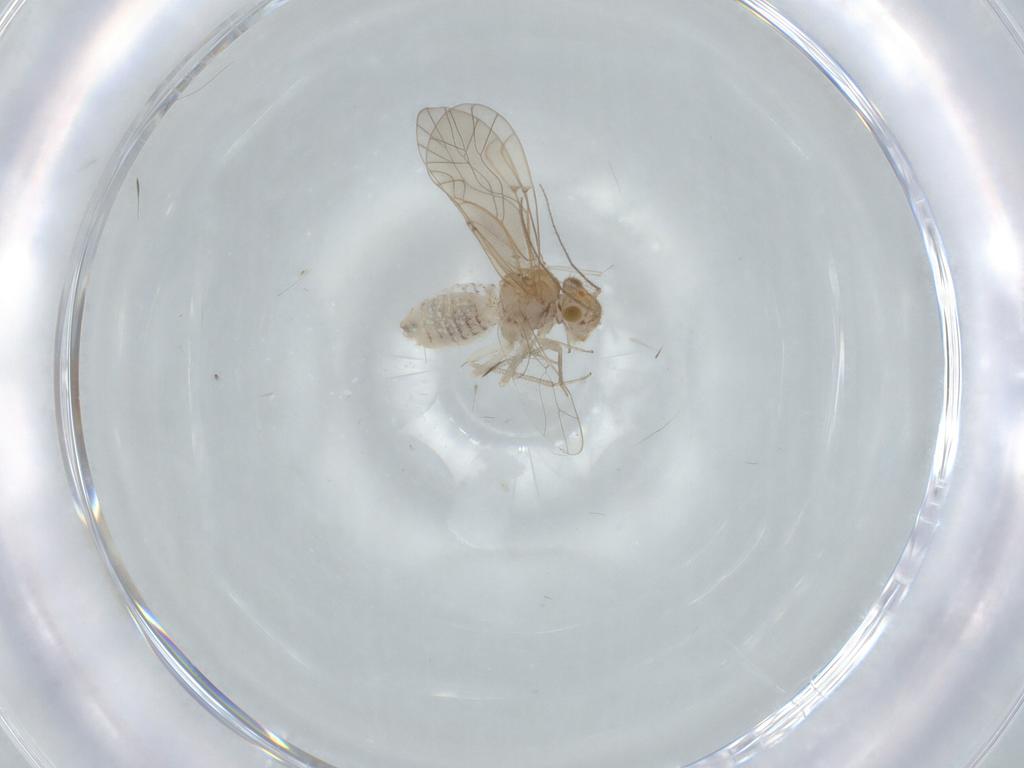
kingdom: Animalia
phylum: Arthropoda
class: Insecta
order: Psocodea
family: Lachesillidae
